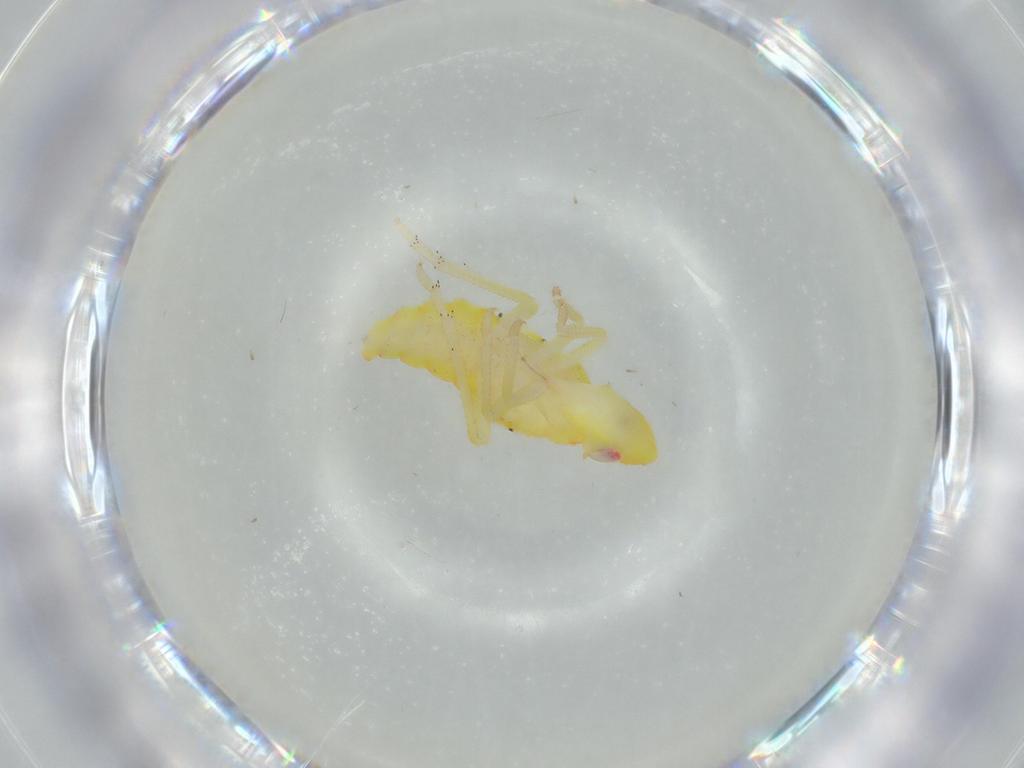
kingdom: Animalia
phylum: Arthropoda
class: Insecta
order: Hemiptera
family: Tropiduchidae
